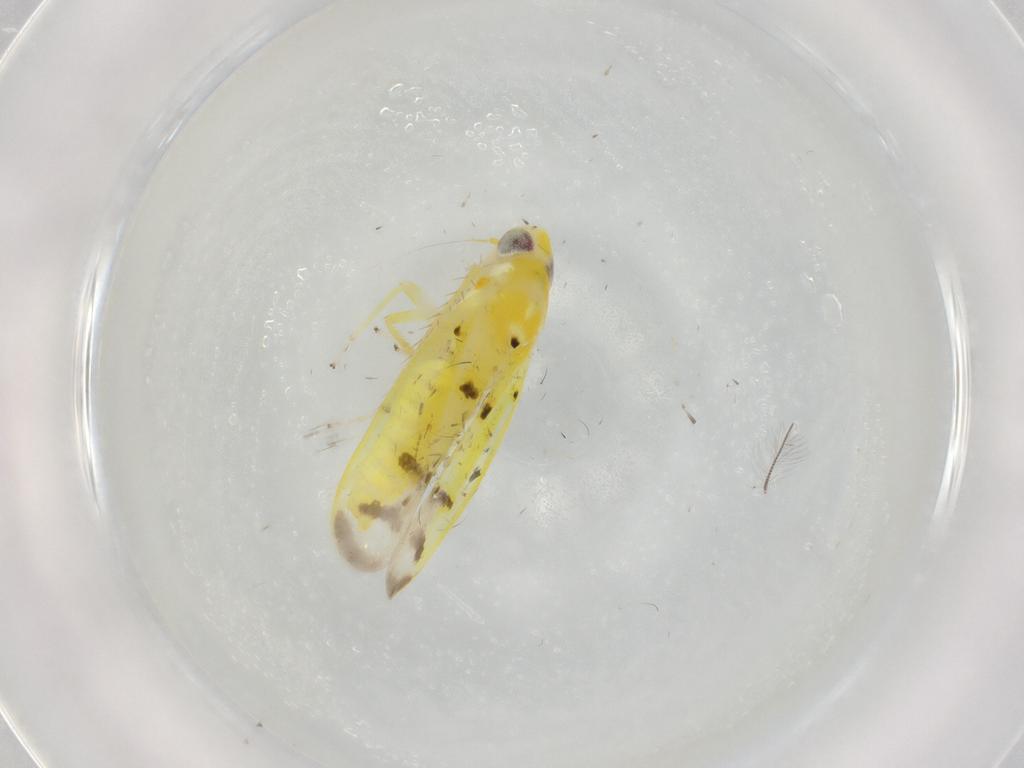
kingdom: Animalia
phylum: Arthropoda
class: Insecta
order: Hemiptera
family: Cicadellidae
